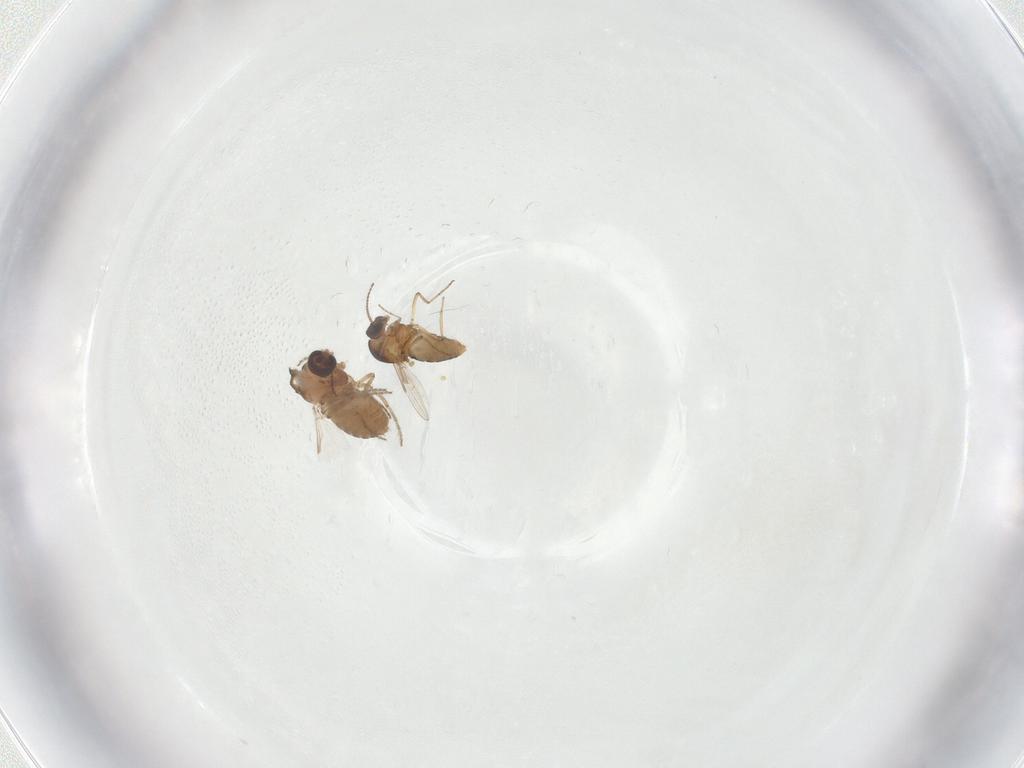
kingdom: Animalia
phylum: Arthropoda
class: Insecta
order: Diptera
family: Ceratopogonidae
